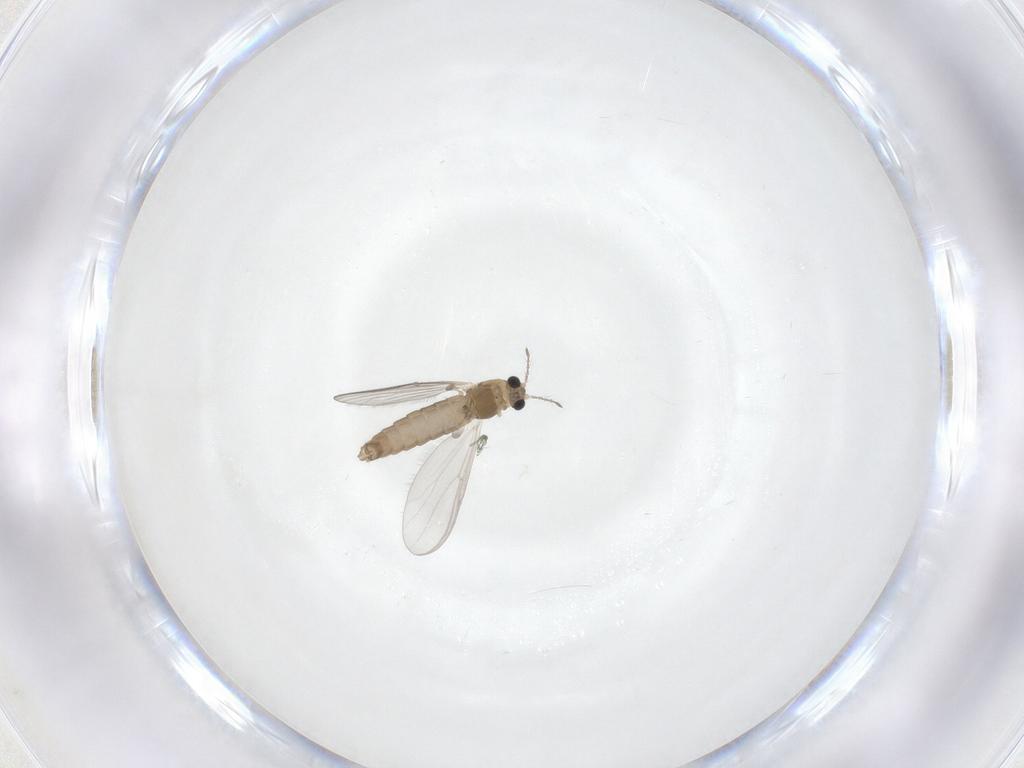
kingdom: Animalia
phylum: Arthropoda
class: Insecta
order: Diptera
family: Chironomidae
